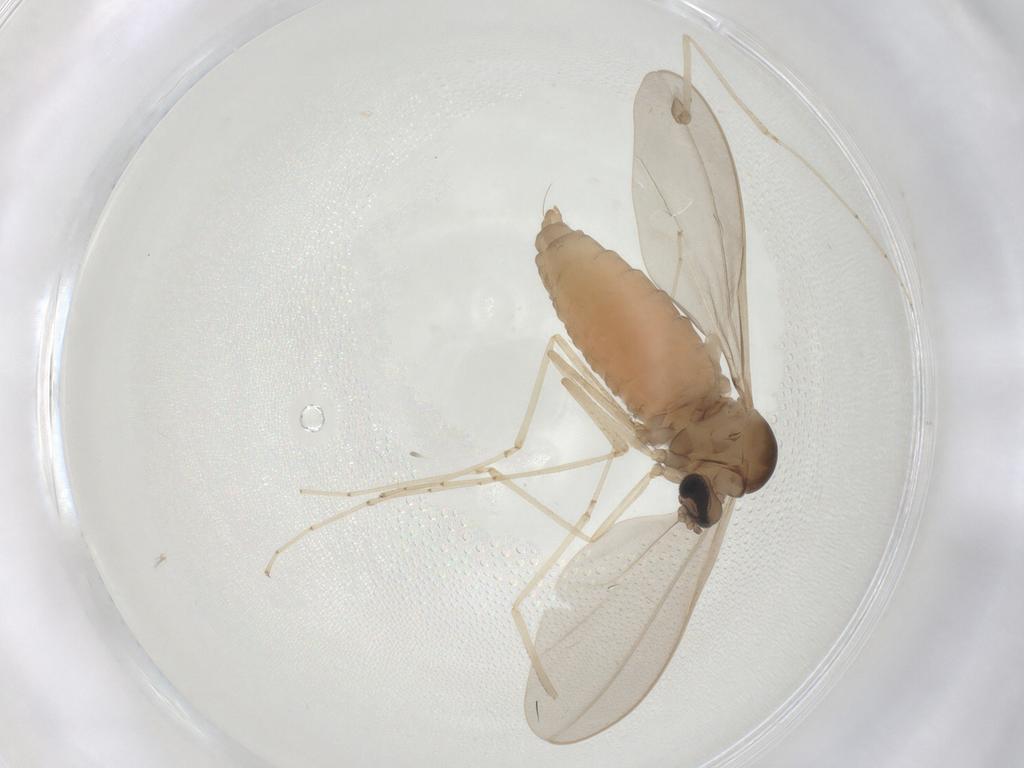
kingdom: Animalia
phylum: Arthropoda
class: Insecta
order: Diptera
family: Cecidomyiidae
